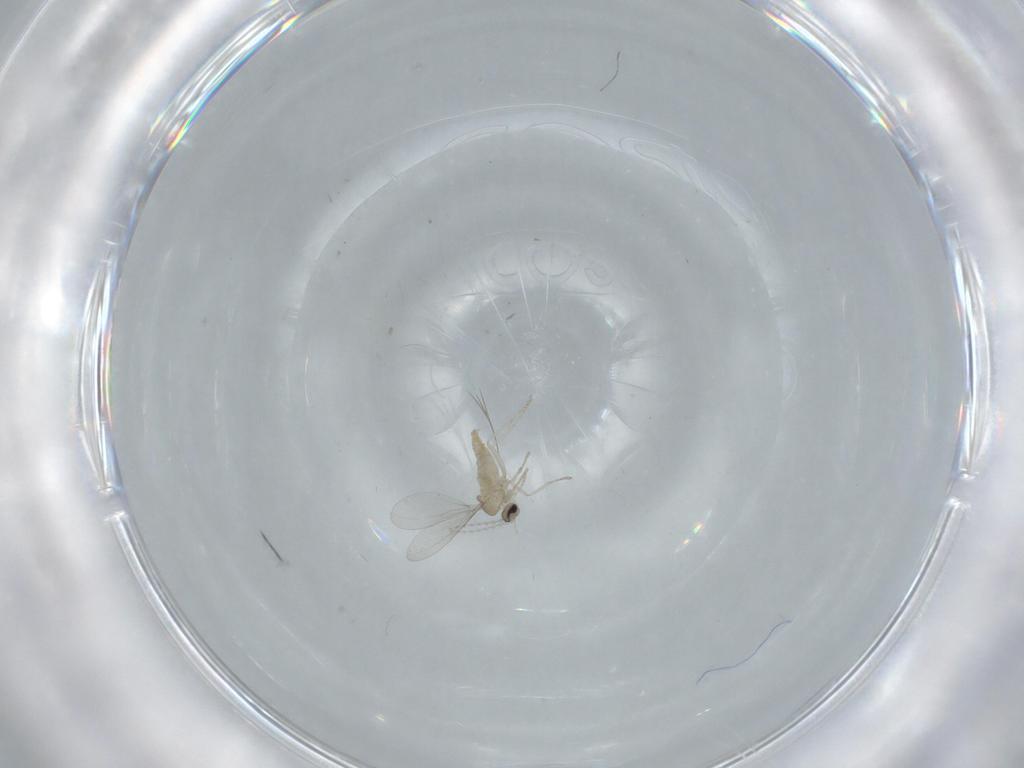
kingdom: Animalia
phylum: Arthropoda
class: Insecta
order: Diptera
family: Cecidomyiidae
